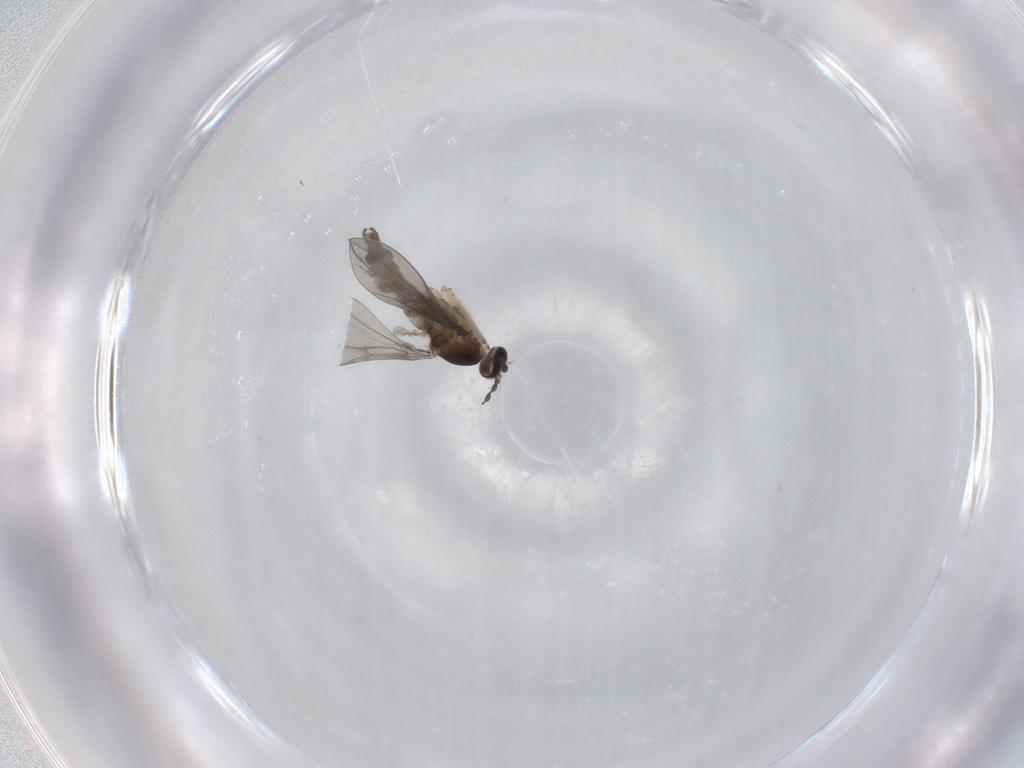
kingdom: Animalia
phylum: Arthropoda
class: Insecta
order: Diptera
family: Cecidomyiidae
